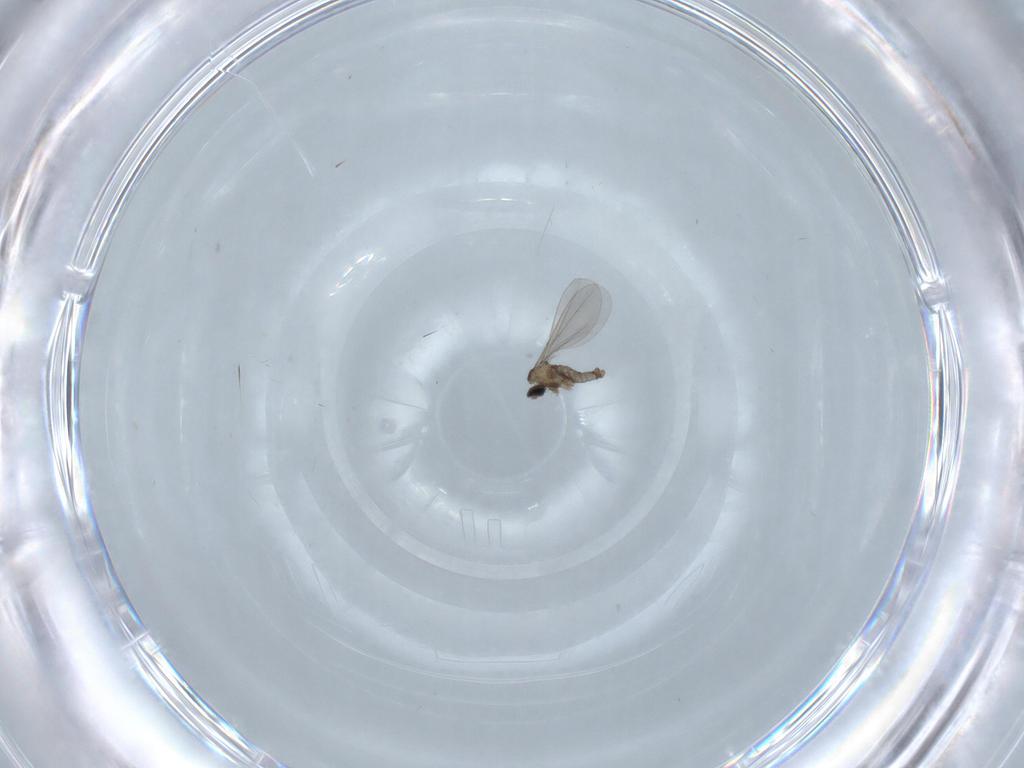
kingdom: Animalia
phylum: Arthropoda
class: Insecta
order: Diptera
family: Phoridae
